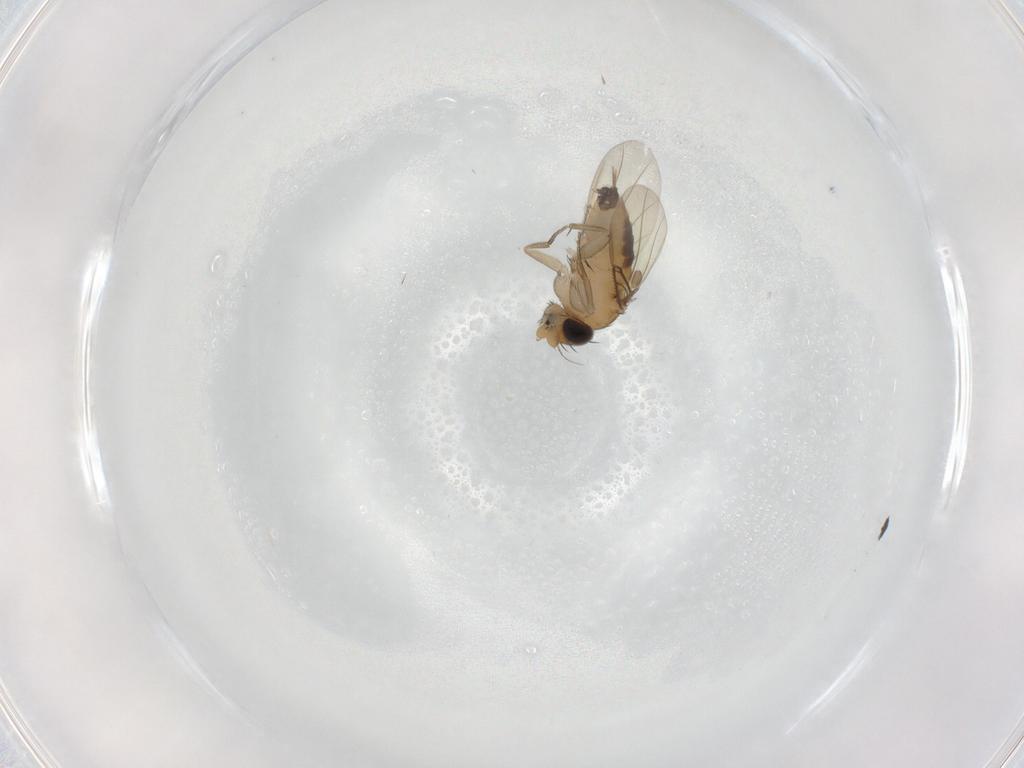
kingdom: Animalia
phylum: Arthropoda
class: Insecta
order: Diptera
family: Phoridae
